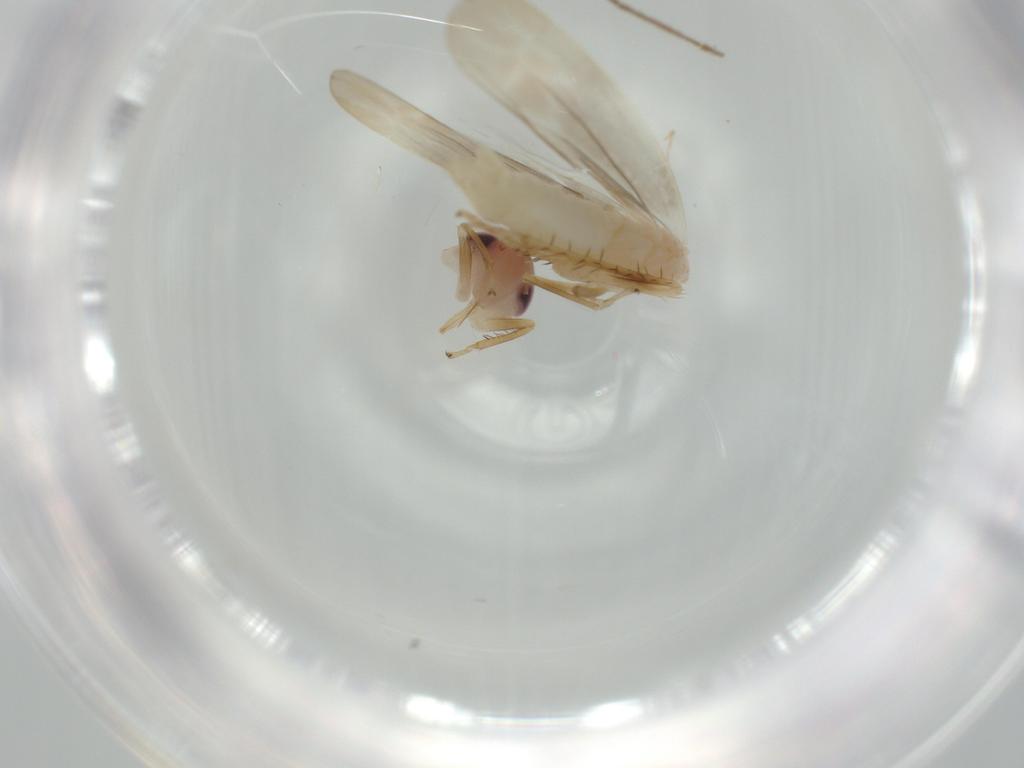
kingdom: Animalia
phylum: Arthropoda
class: Insecta
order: Hemiptera
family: Cicadellidae
